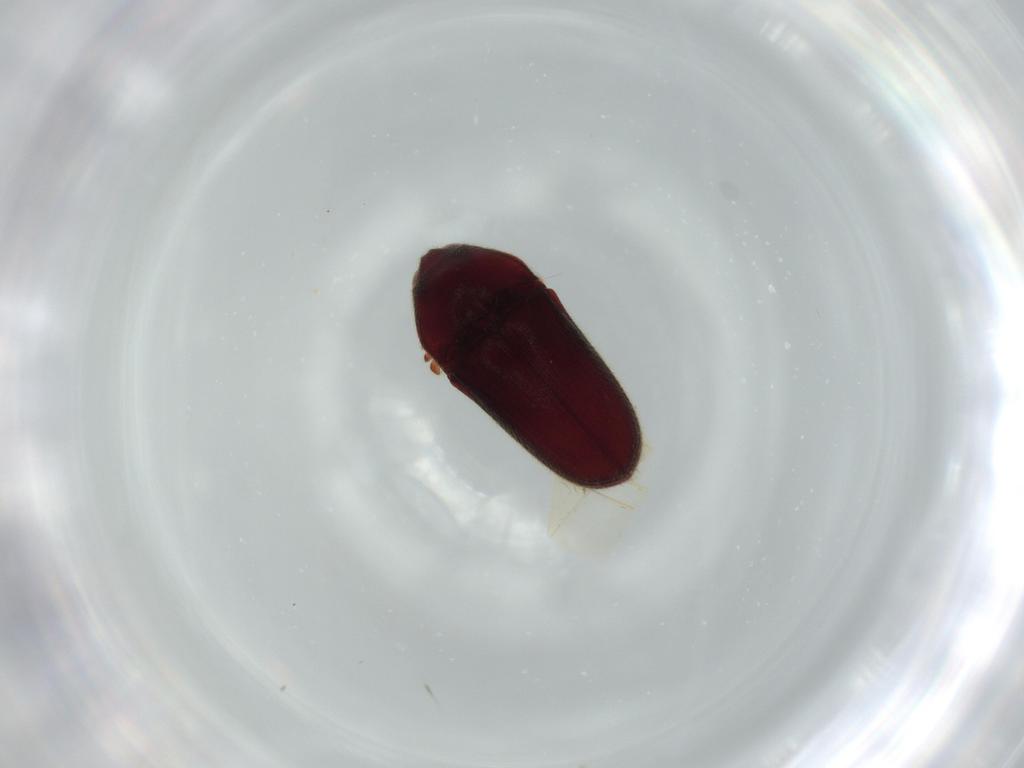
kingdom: Animalia
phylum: Arthropoda
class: Insecta
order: Coleoptera
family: Throscidae
